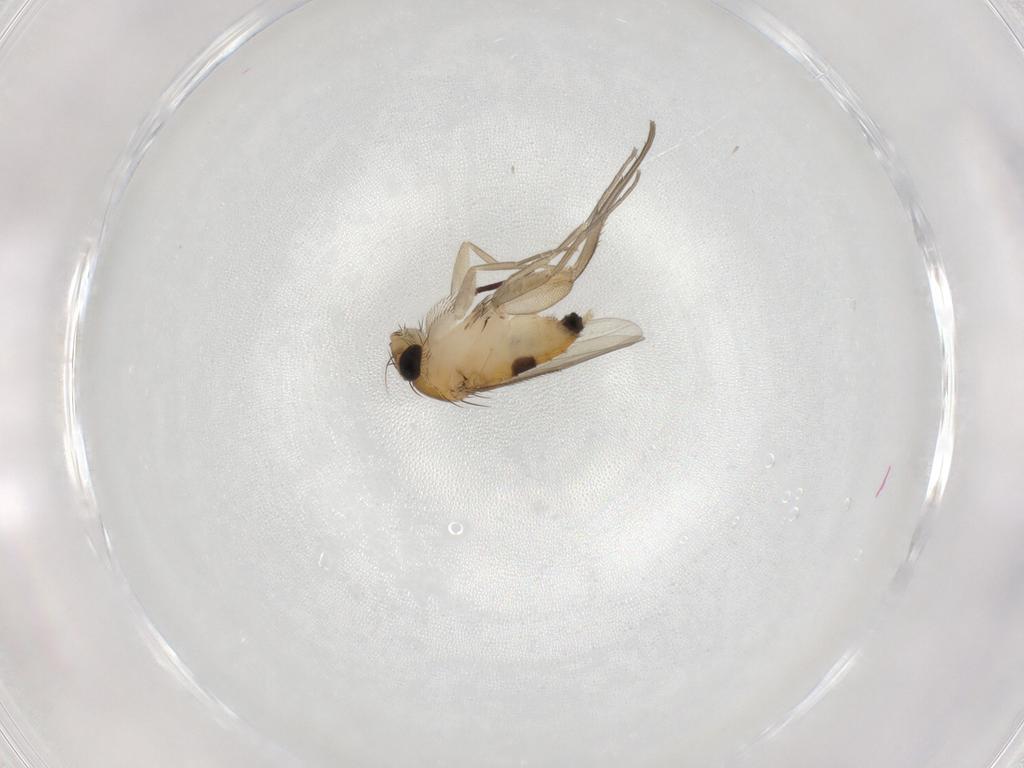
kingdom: Animalia
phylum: Arthropoda
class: Insecta
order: Diptera
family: Phoridae
